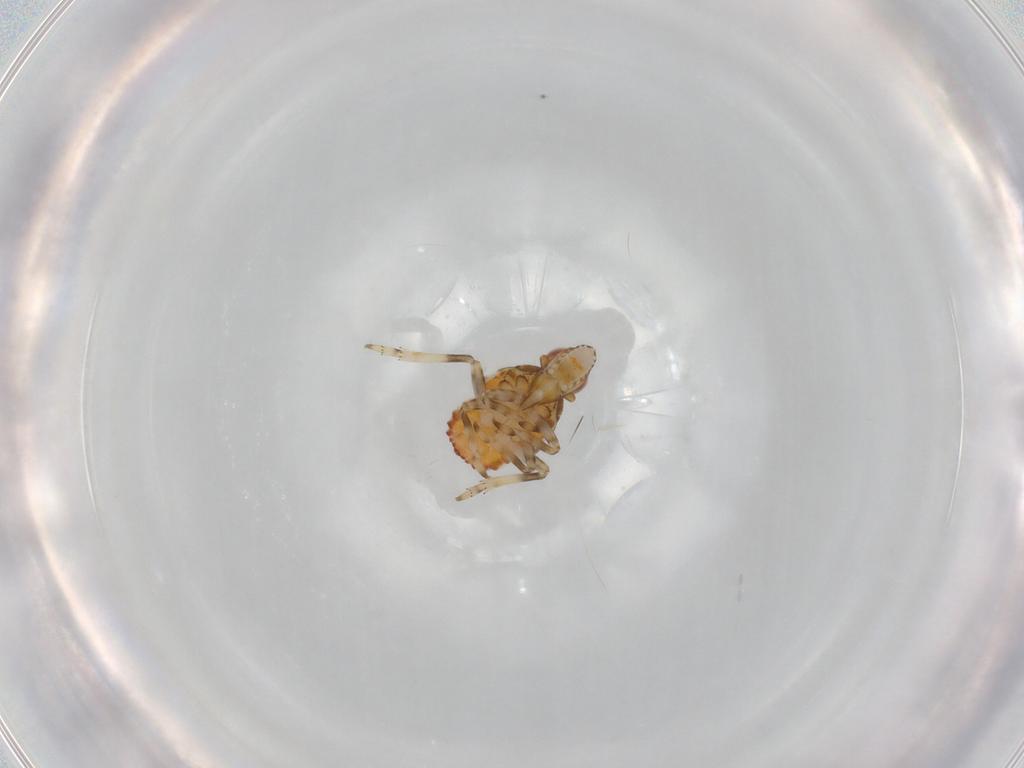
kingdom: Animalia
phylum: Arthropoda
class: Insecta
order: Hemiptera
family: Tropiduchidae
